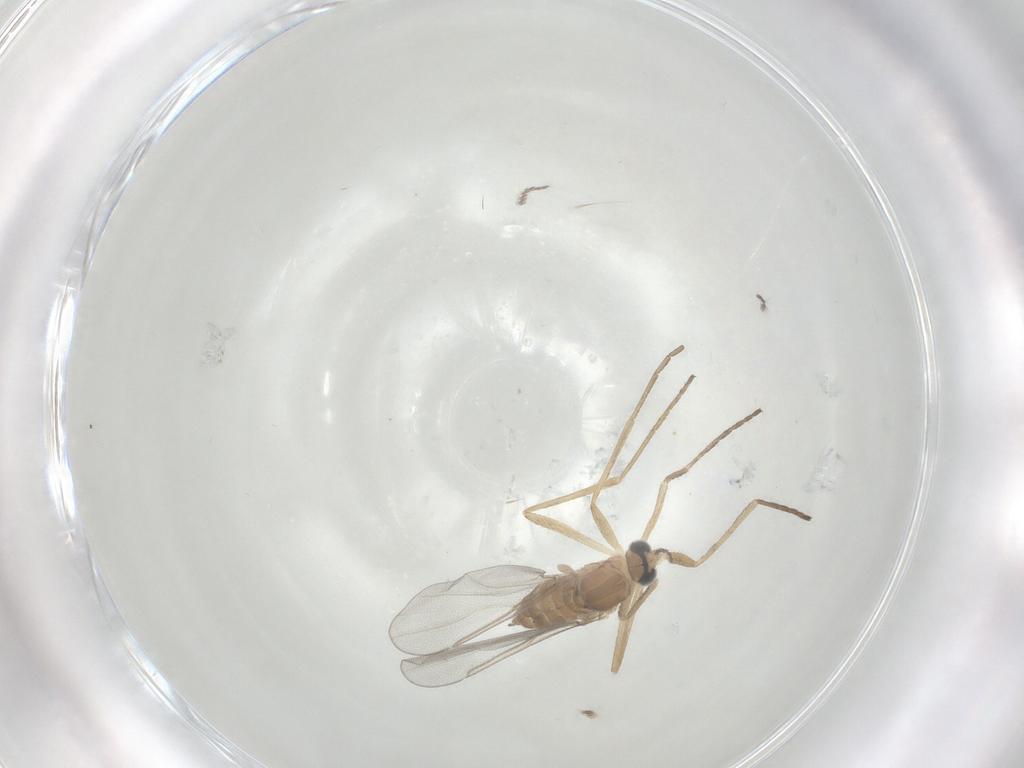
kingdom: Animalia
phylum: Arthropoda
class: Insecta
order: Diptera
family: Cecidomyiidae
